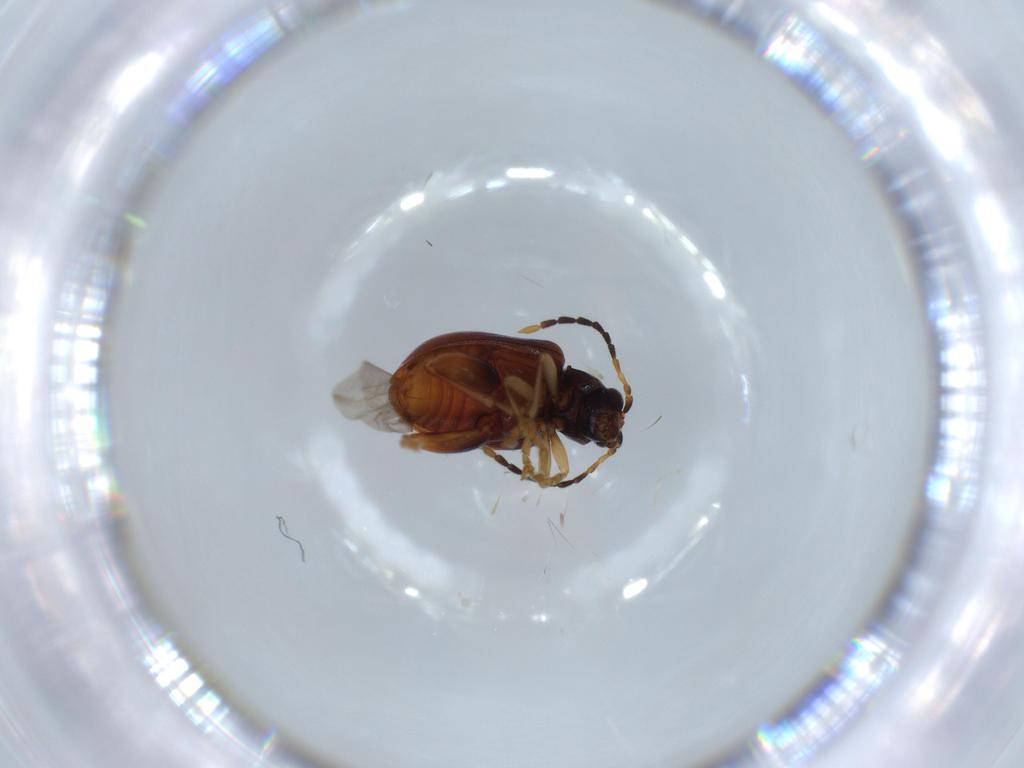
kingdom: Animalia
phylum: Arthropoda
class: Insecta
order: Coleoptera
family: Chrysomelidae
